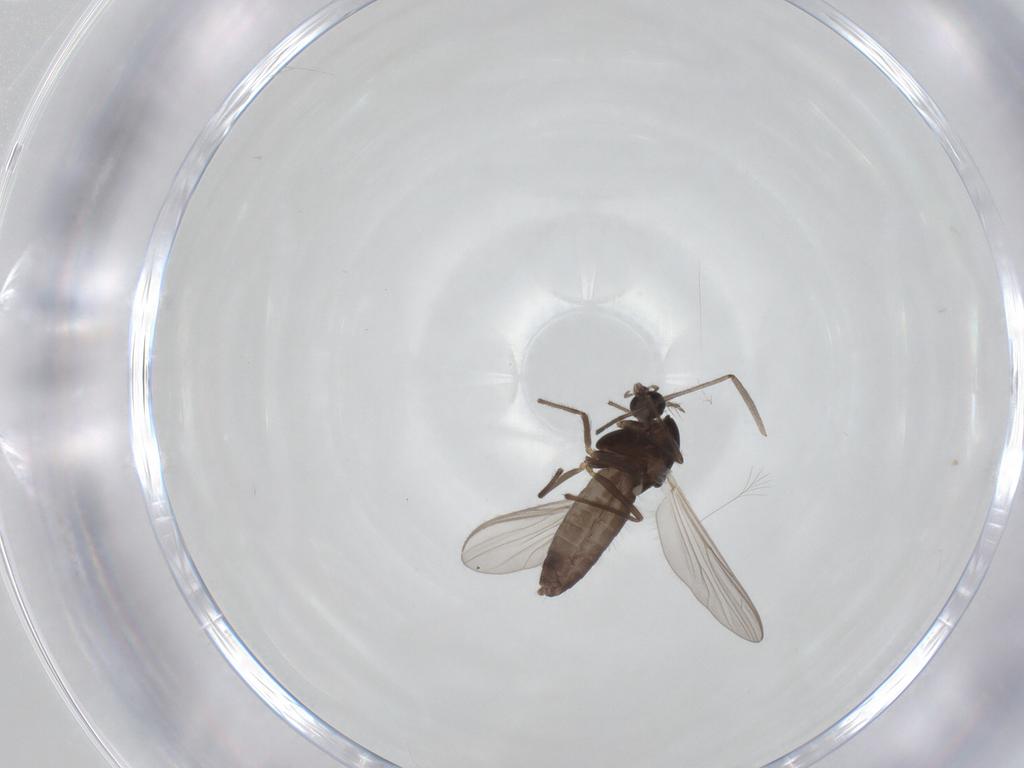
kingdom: Animalia
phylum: Arthropoda
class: Insecta
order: Diptera
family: Chironomidae
